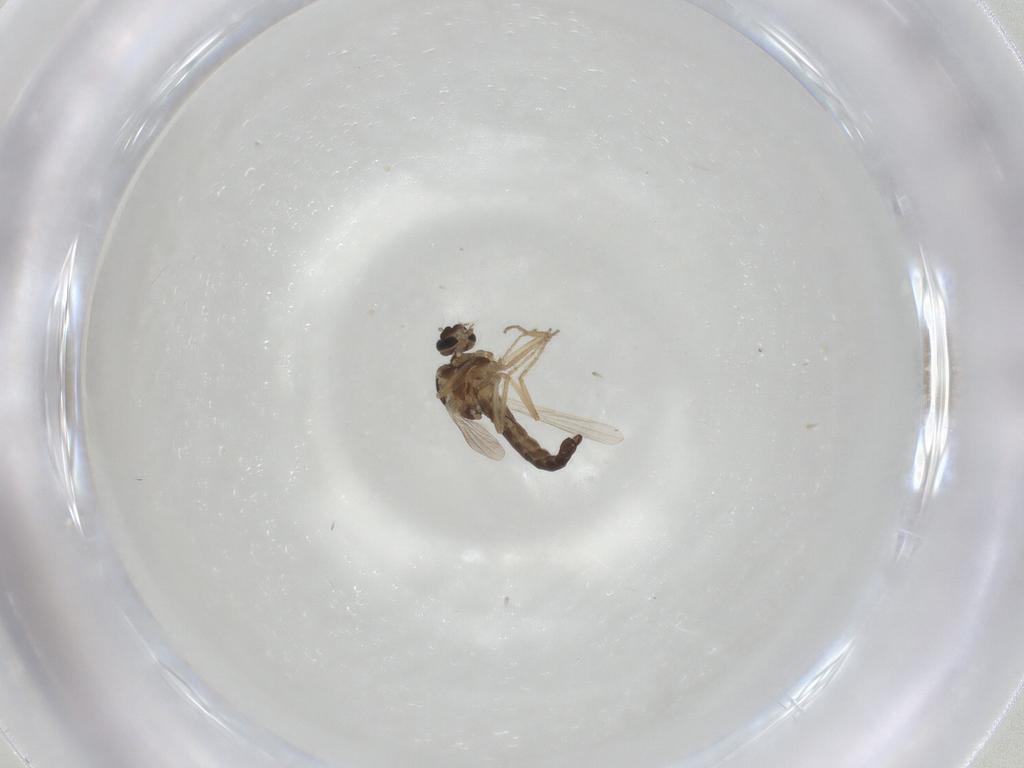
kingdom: Animalia
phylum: Arthropoda
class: Insecta
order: Diptera
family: Ceratopogonidae
